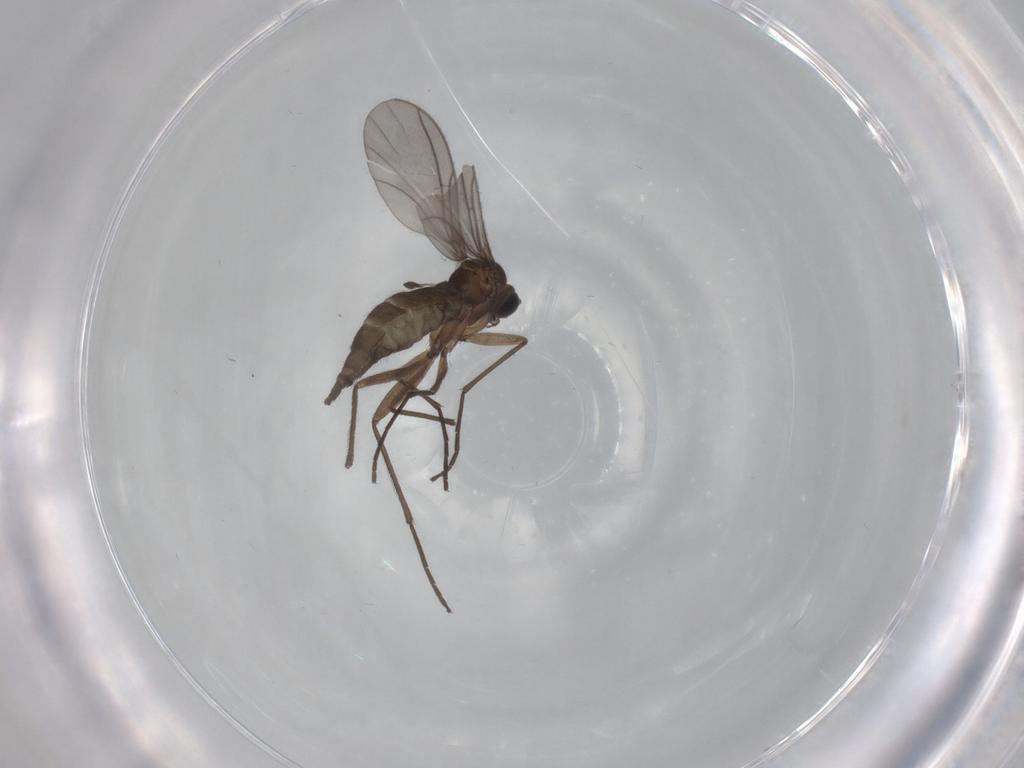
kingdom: Animalia
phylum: Arthropoda
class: Insecta
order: Diptera
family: Sciaridae
